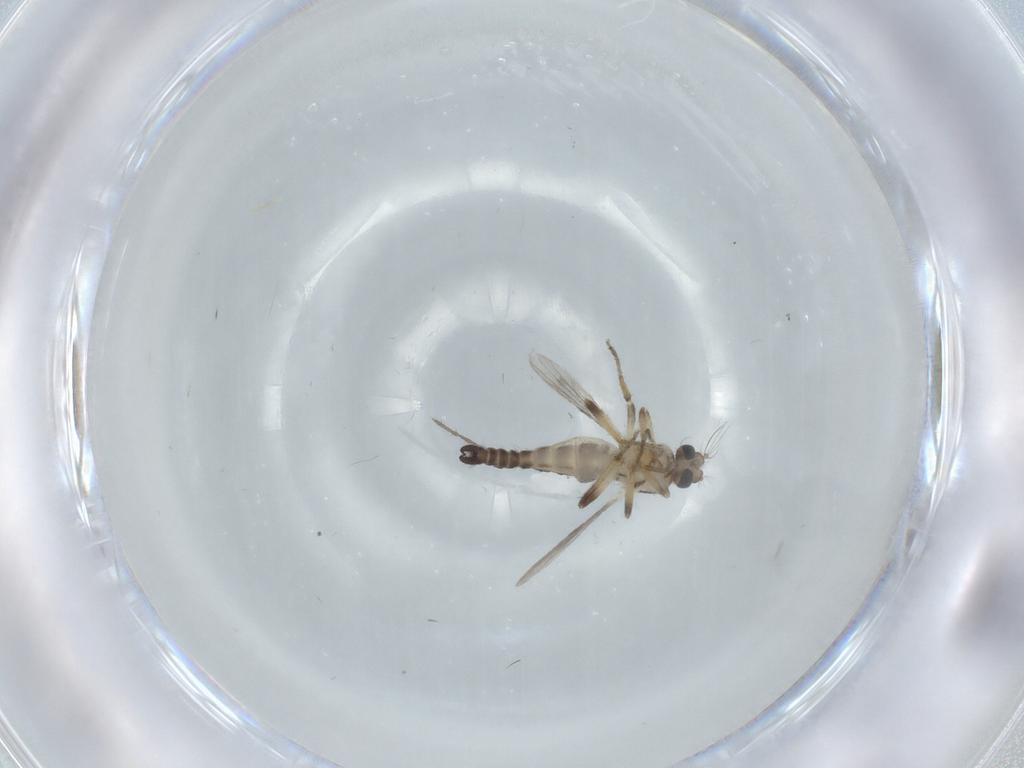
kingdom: Animalia
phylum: Arthropoda
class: Insecta
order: Diptera
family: Ceratopogonidae
